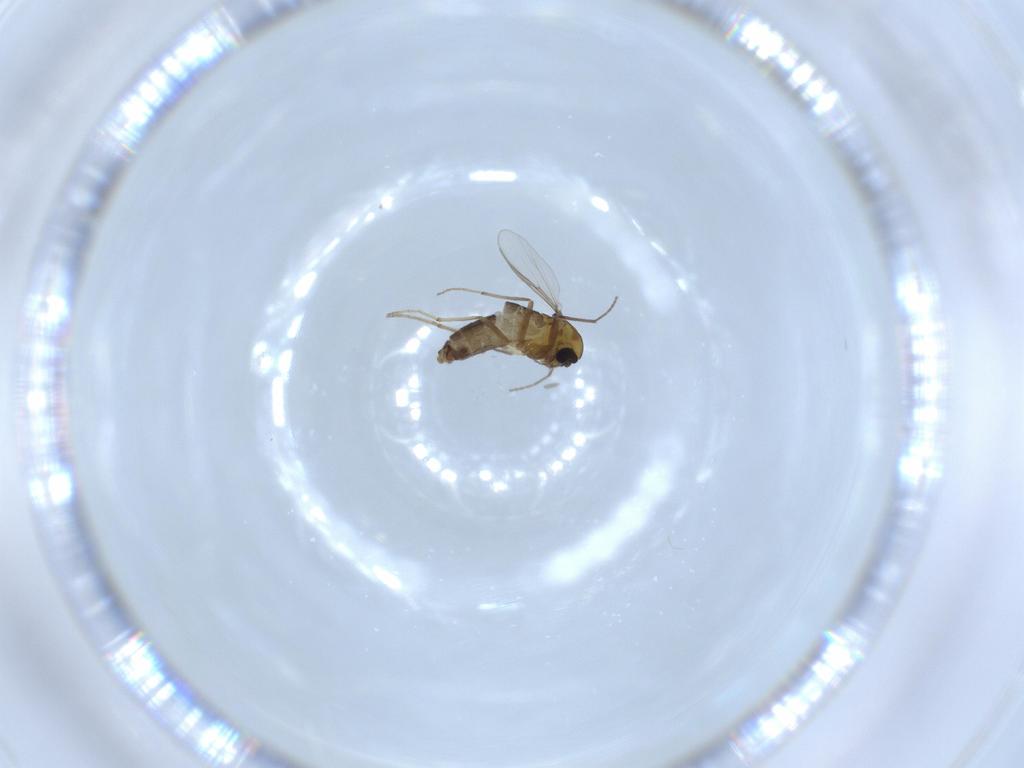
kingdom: Animalia
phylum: Arthropoda
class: Insecta
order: Diptera
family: Chironomidae
